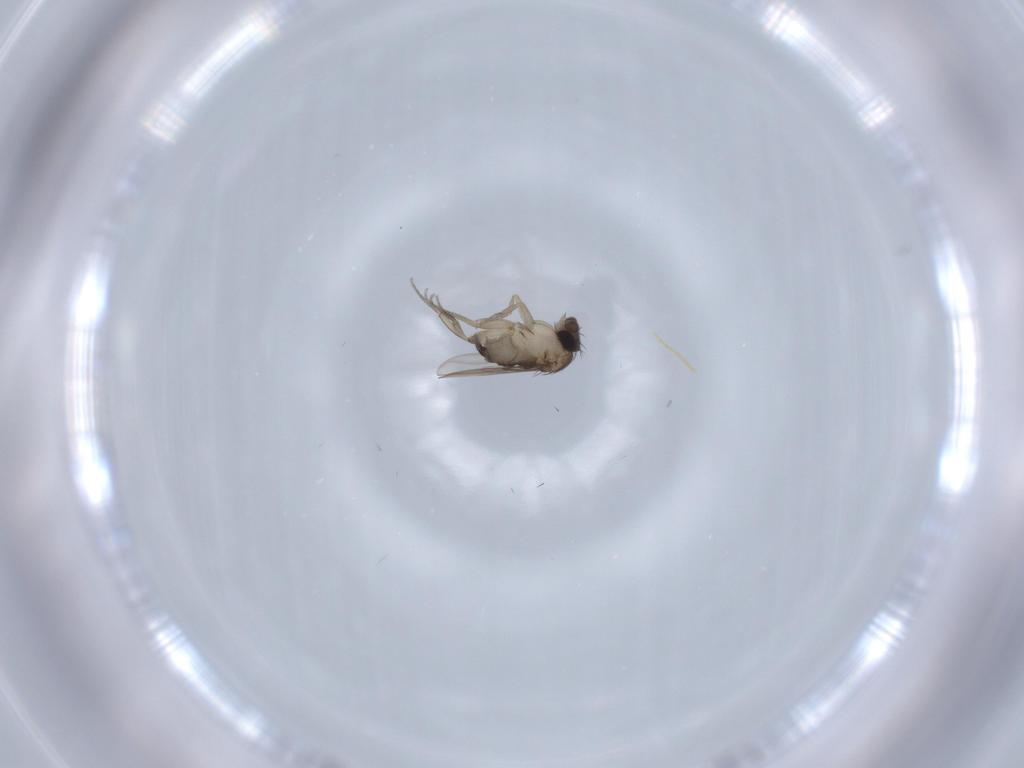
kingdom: Animalia
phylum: Arthropoda
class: Insecta
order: Diptera
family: Phoridae
